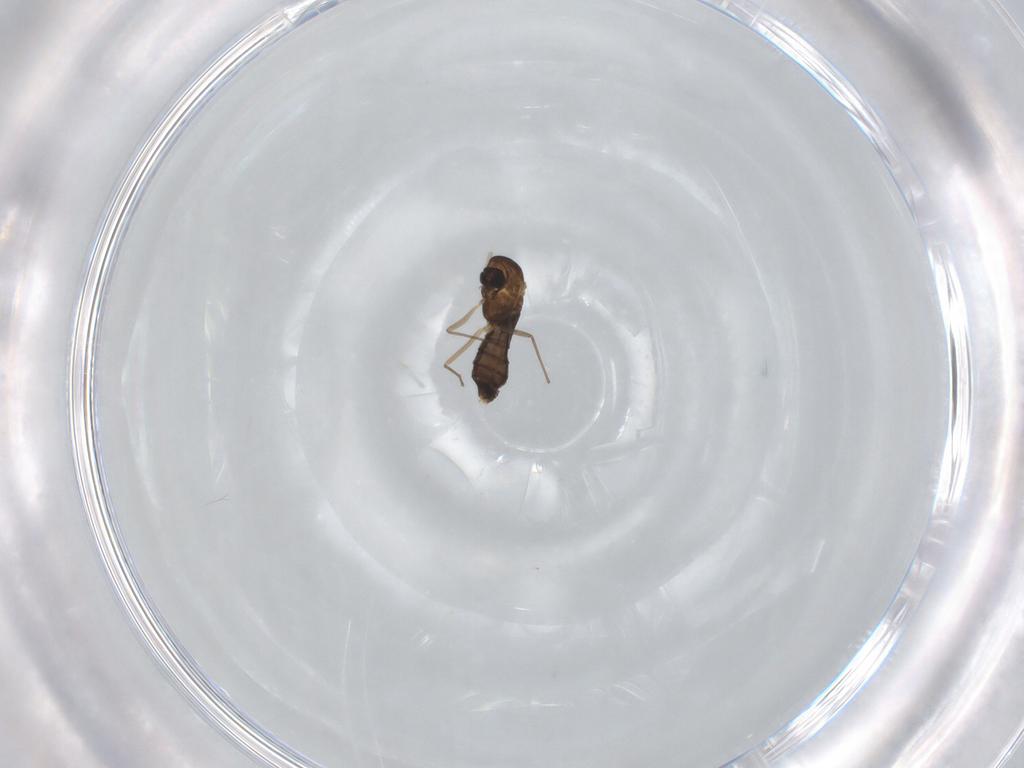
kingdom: Animalia
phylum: Arthropoda
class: Insecta
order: Diptera
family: Chironomidae
